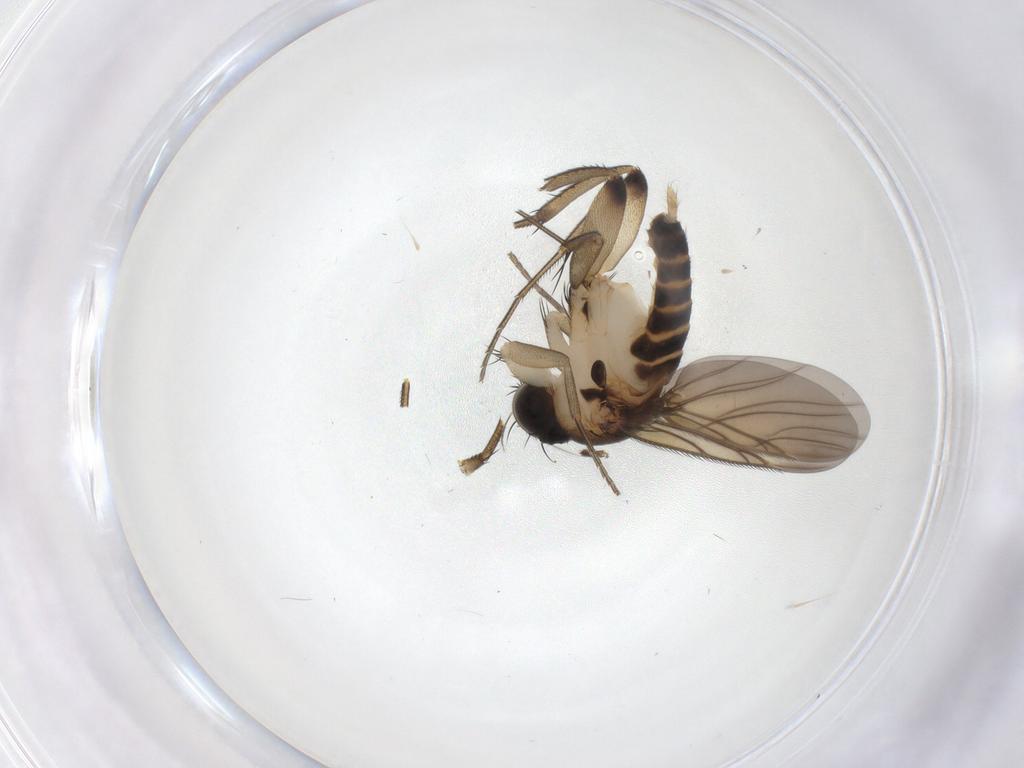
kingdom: Animalia
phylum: Arthropoda
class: Insecta
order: Diptera
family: Phoridae
